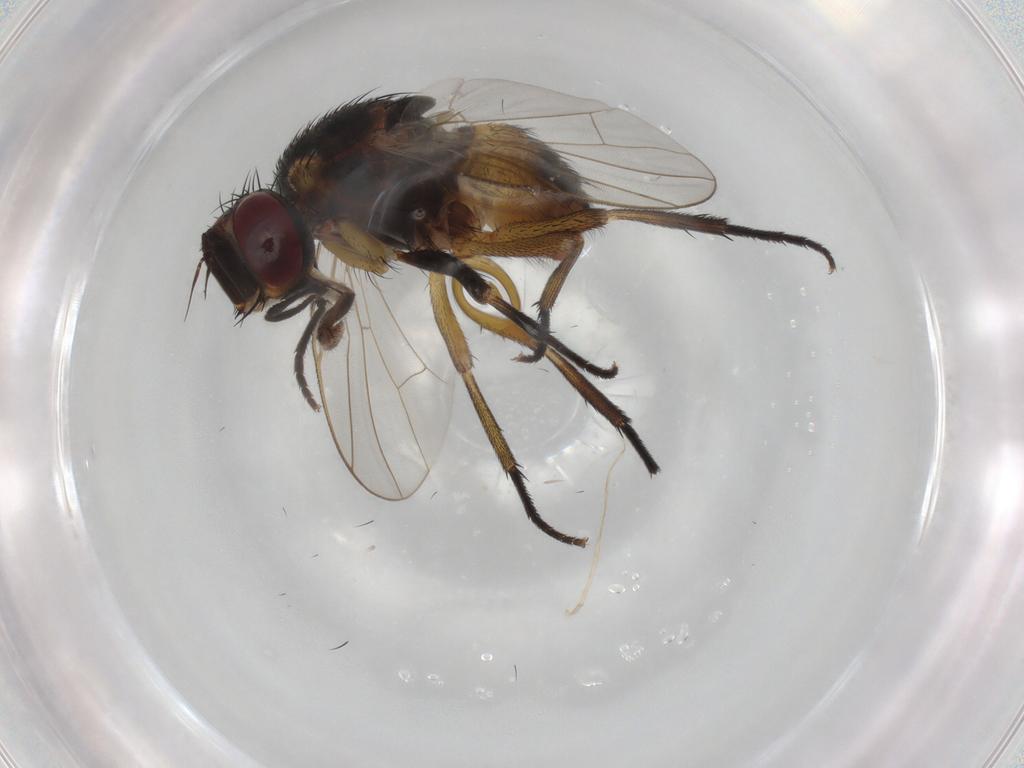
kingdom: Animalia
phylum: Arthropoda
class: Insecta
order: Diptera
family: Muscidae
